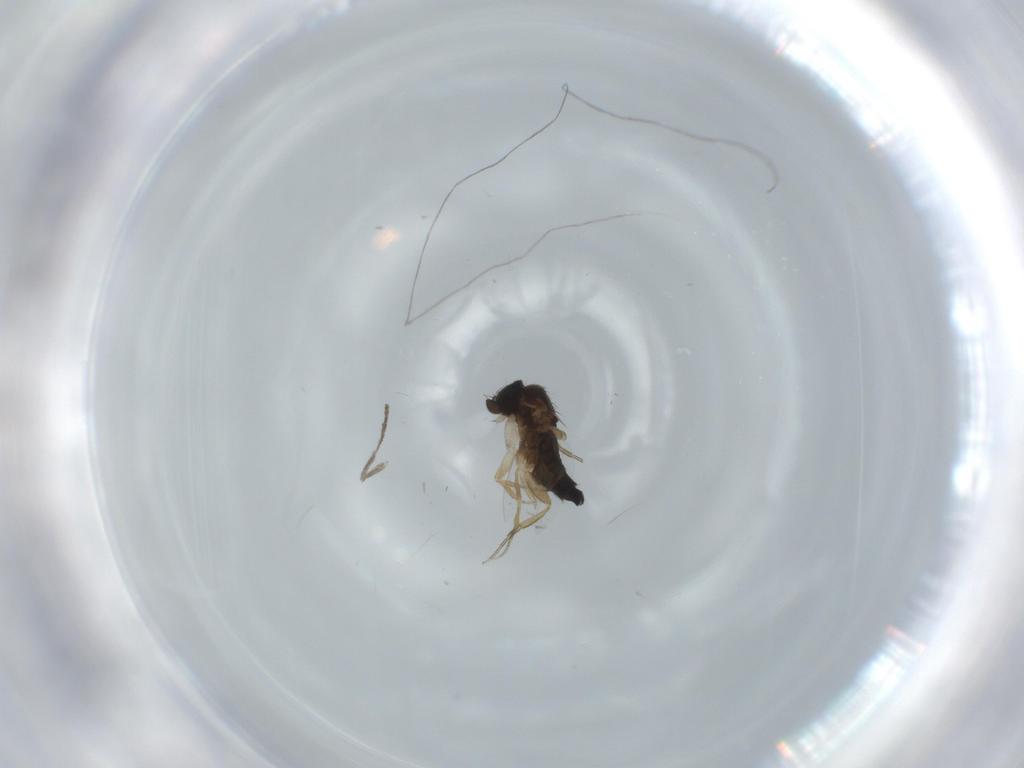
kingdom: Animalia
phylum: Arthropoda
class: Insecta
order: Diptera
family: Phoridae
